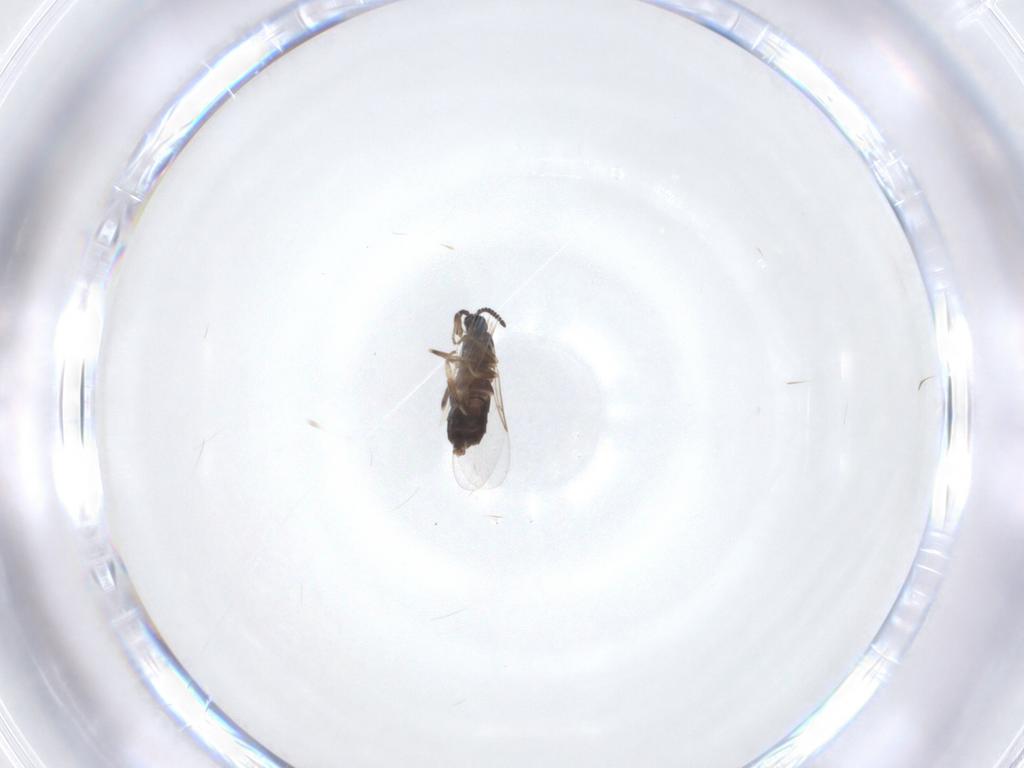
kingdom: Animalia
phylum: Arthropoda
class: Insecta
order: Diptera
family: Scatopsidae
